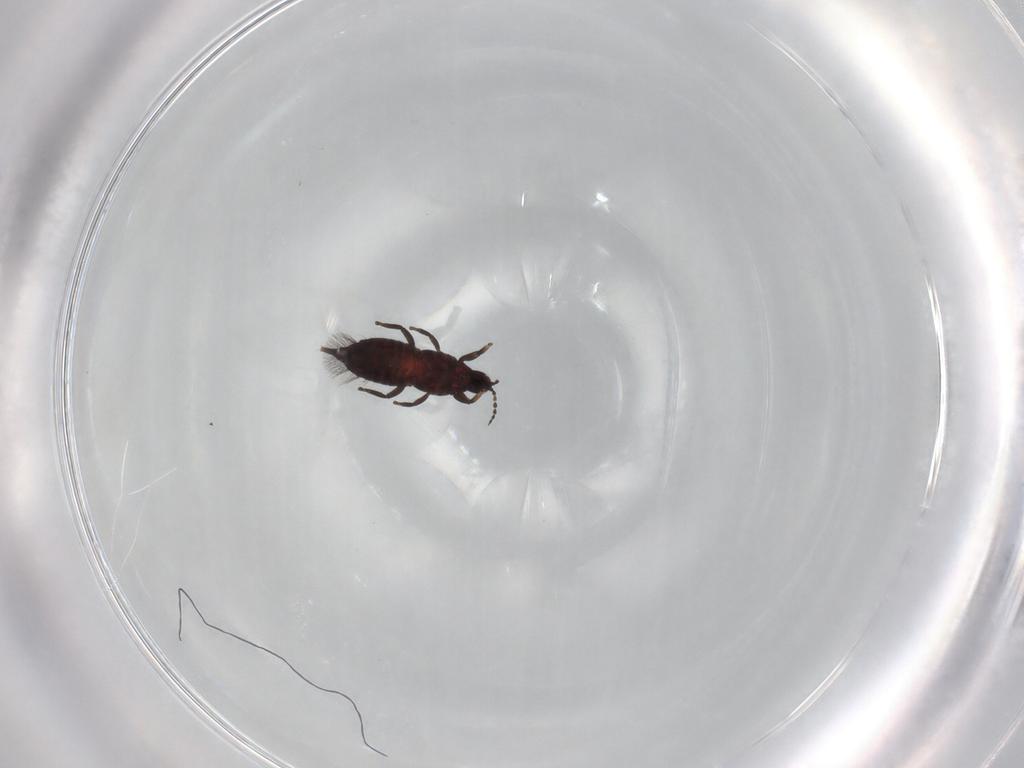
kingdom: Animalia
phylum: Arthropoda
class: Insecta
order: Thysanoptera
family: Phlaeothripidae
